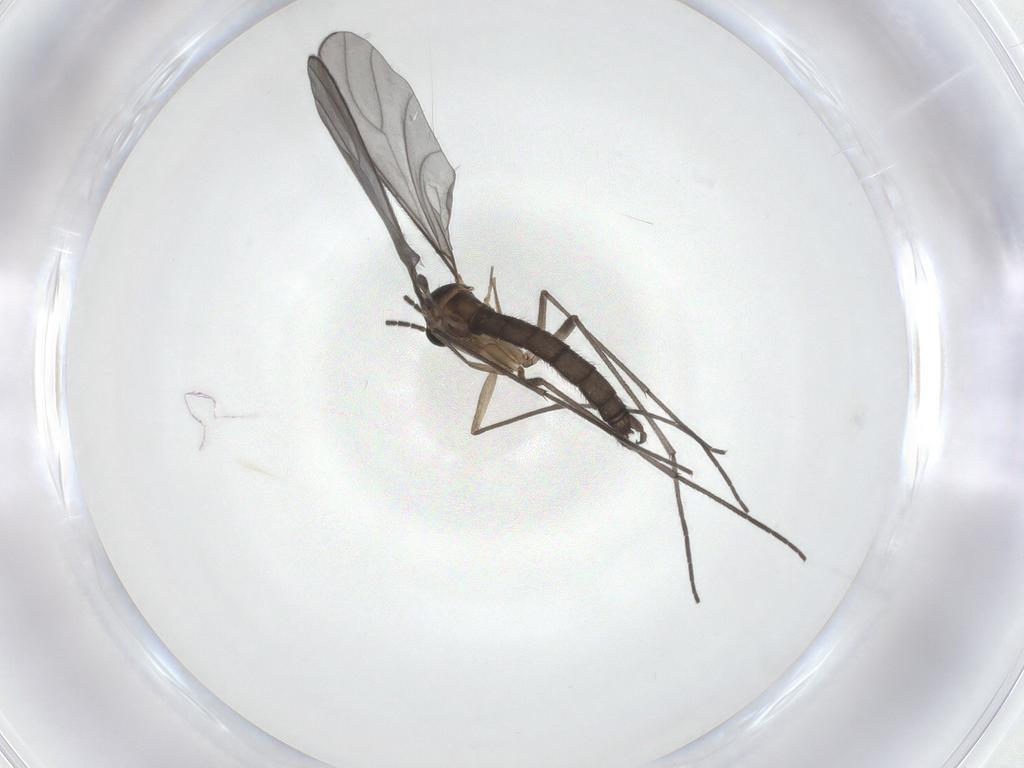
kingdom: Animalia
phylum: Arthropoda
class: Insecta
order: Diptera
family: Sciaridae
